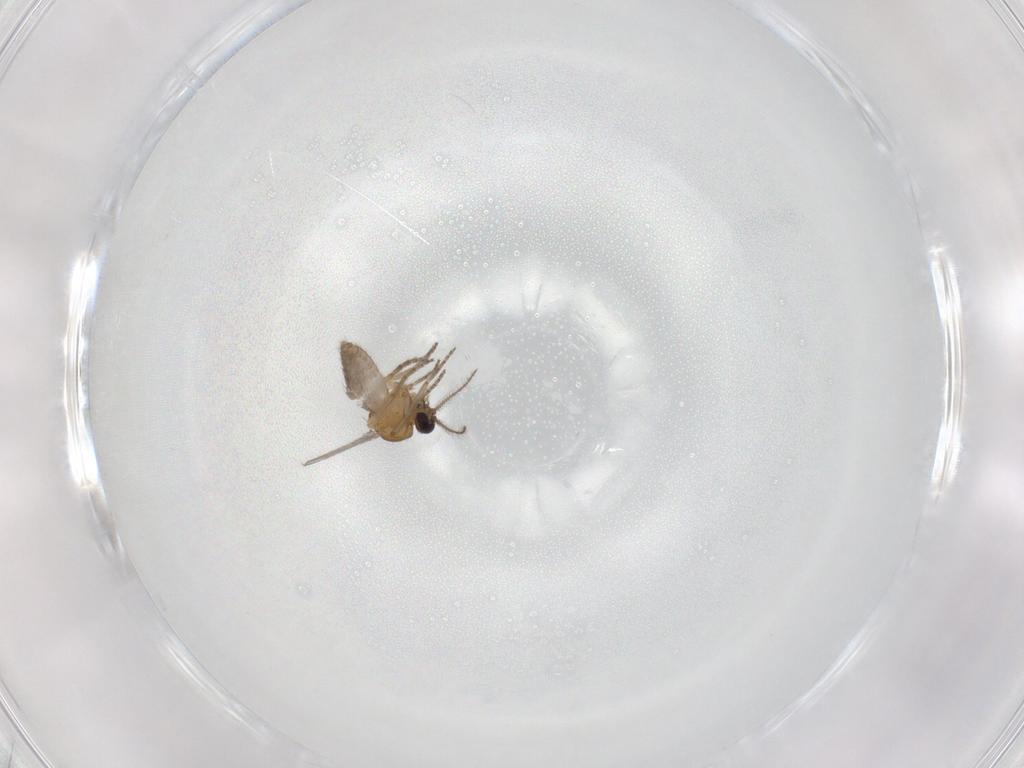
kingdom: Animalia
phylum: Arthropoda
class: Insecta
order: Diptera
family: Ceratopogonidae
